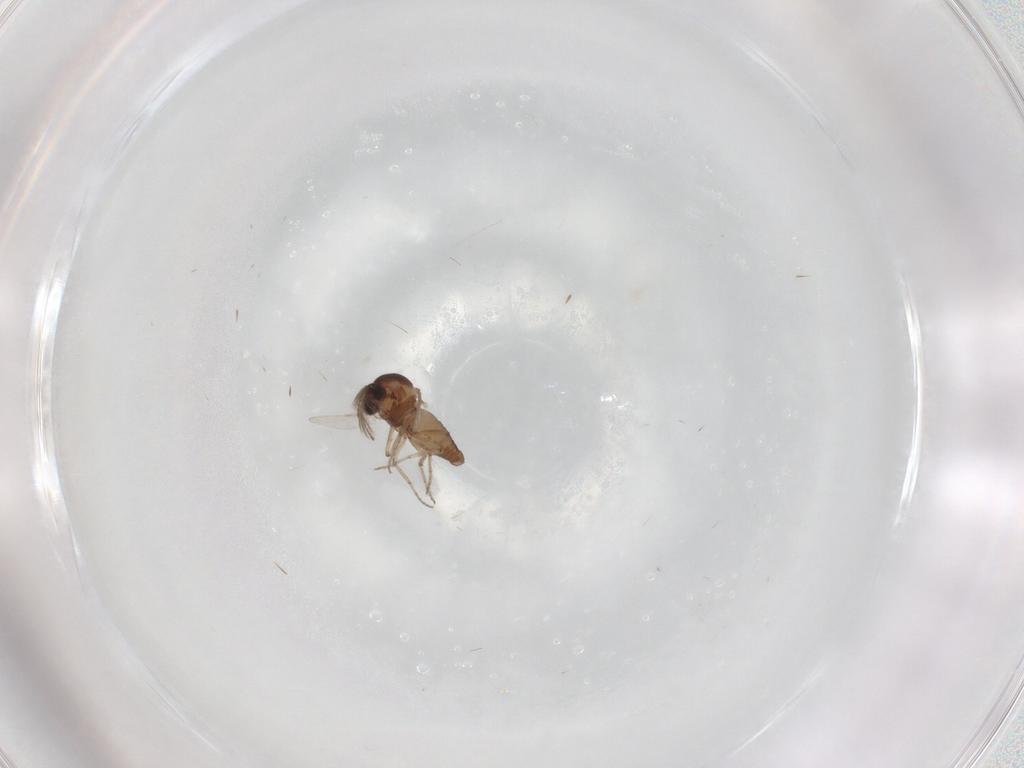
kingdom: Animalia
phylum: Arthropoda
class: Insecta
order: Diptera
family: Ceratopogonidae
